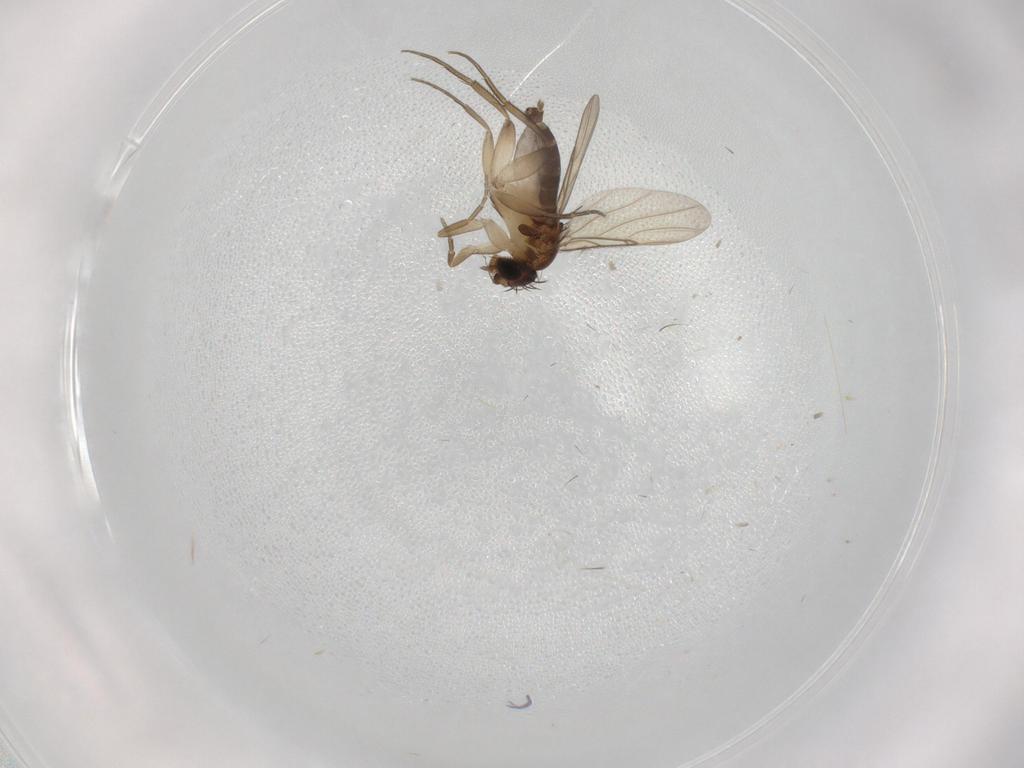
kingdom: Animalia
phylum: Arthropoda
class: Insecta
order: Diptera
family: Phoridae
